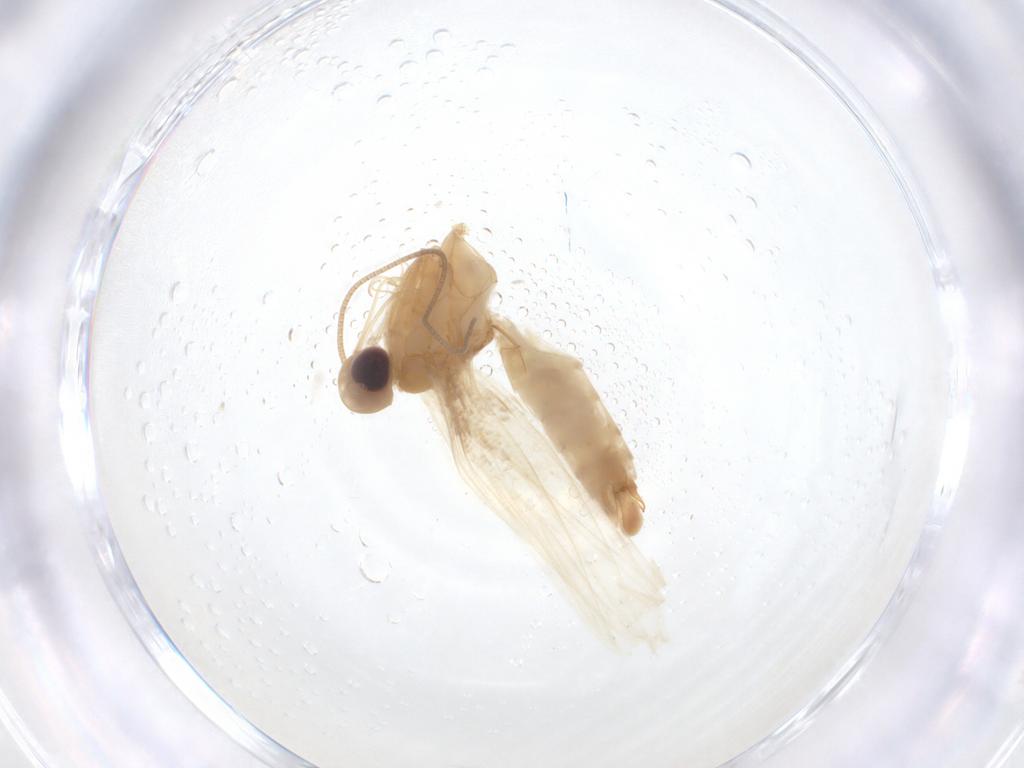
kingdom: Animalia
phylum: Arthropoda
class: Insecta
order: Lepidoptera
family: Gracillariidae
